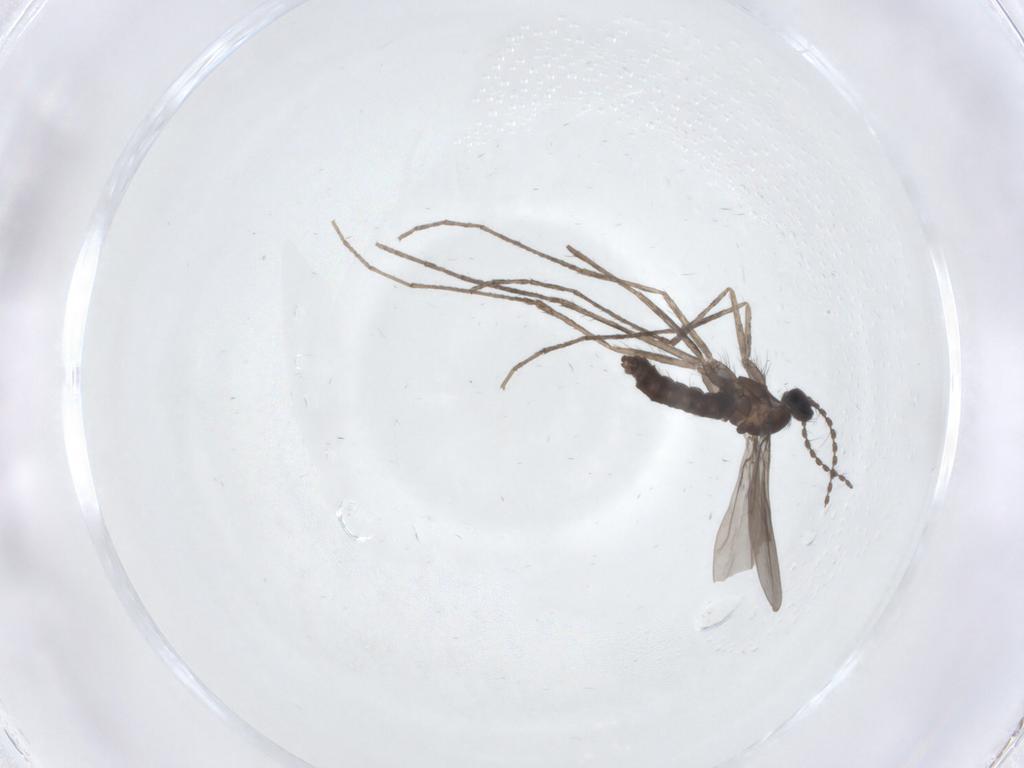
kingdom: Animalia
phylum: Arthropoda
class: Insecta
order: Diptera
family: Cecidomyiidae
